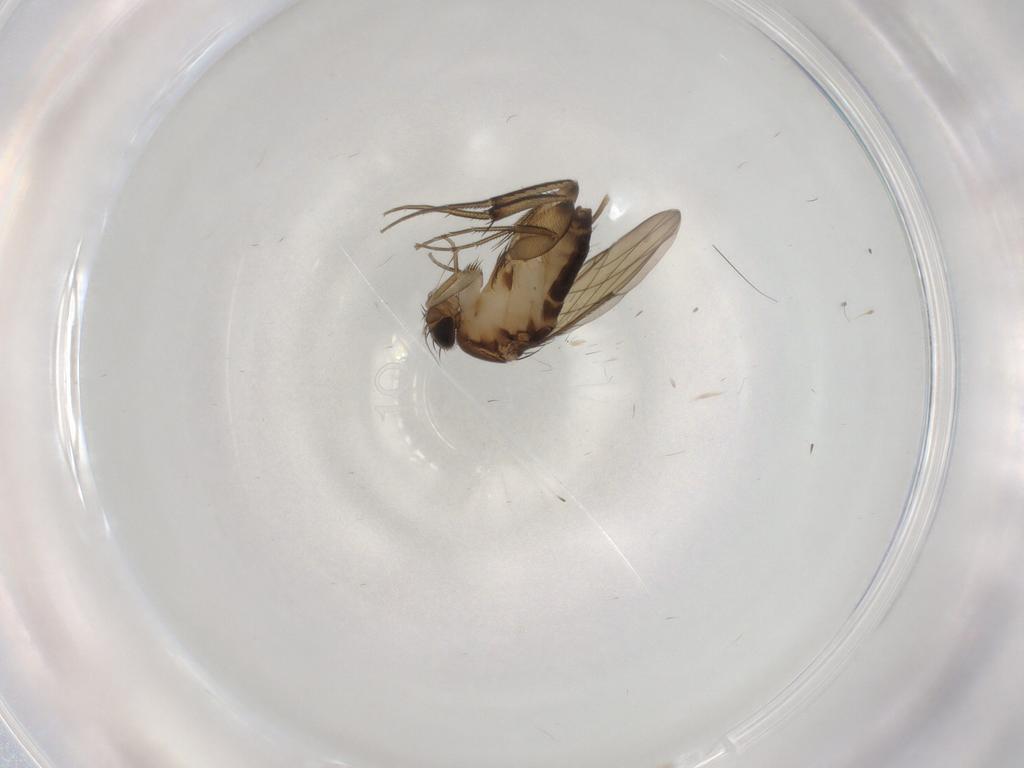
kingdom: Animalia
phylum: Arthropoda
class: Insecta
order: Diptera
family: Phoridae
